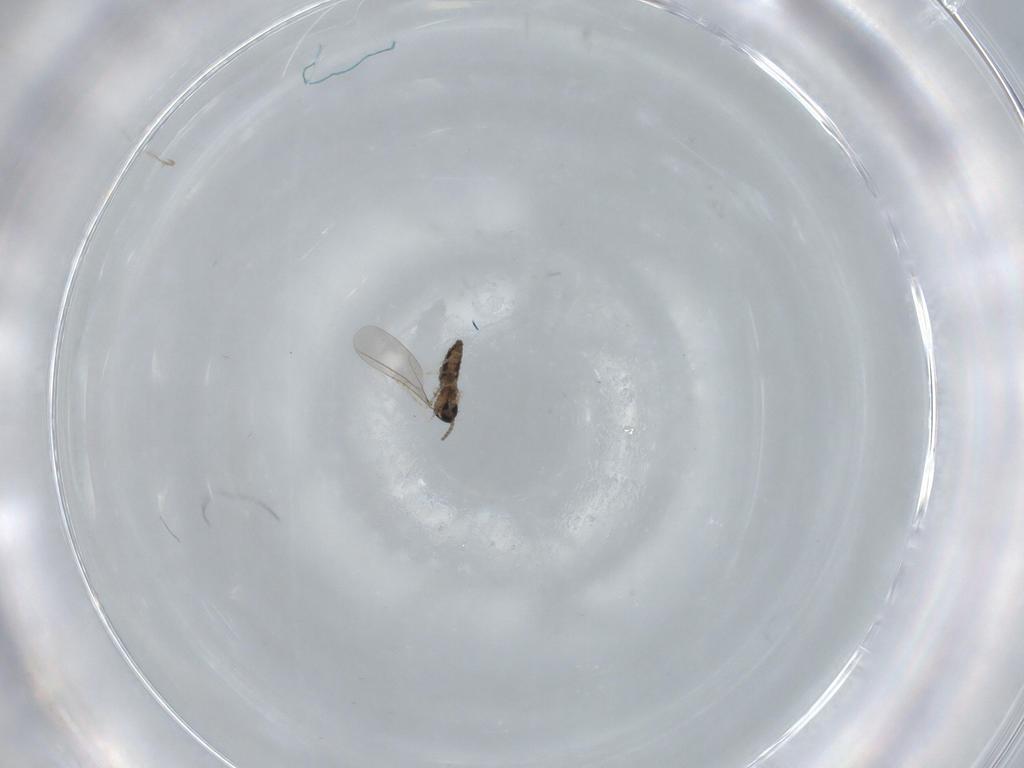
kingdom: Animalia
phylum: Arthropoda
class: Insecta
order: Diptera
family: Cecidomyiidae
